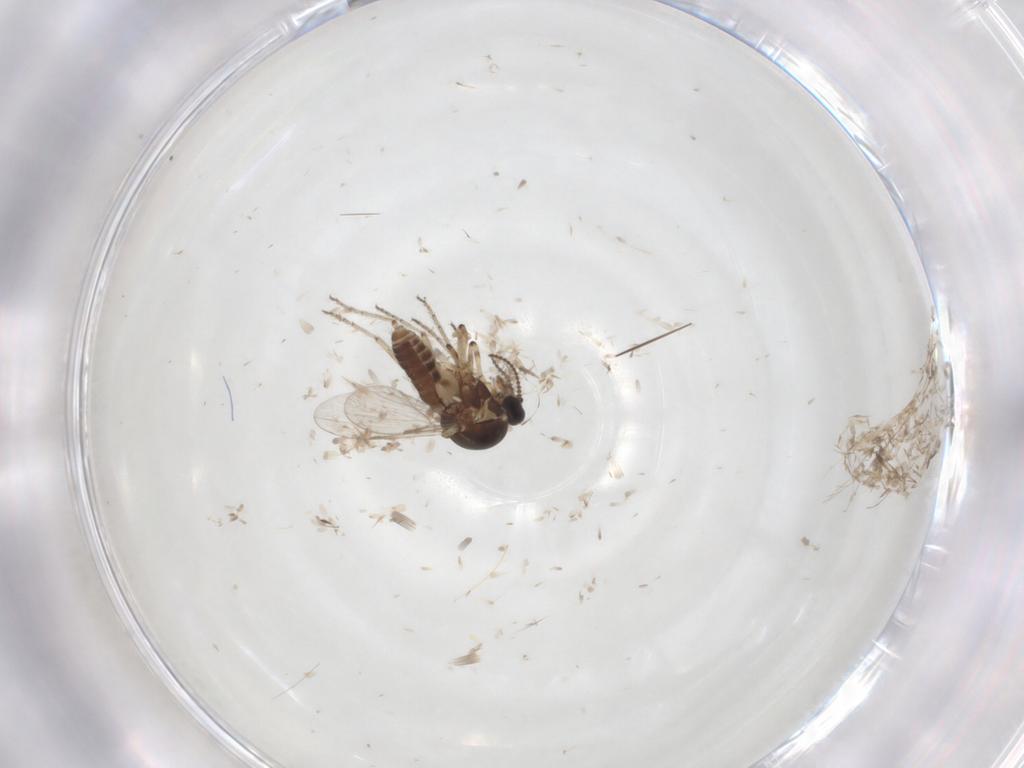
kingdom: Animalia
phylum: Arthropoda
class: Insecta
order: Diptera
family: Ceratopogonidae
